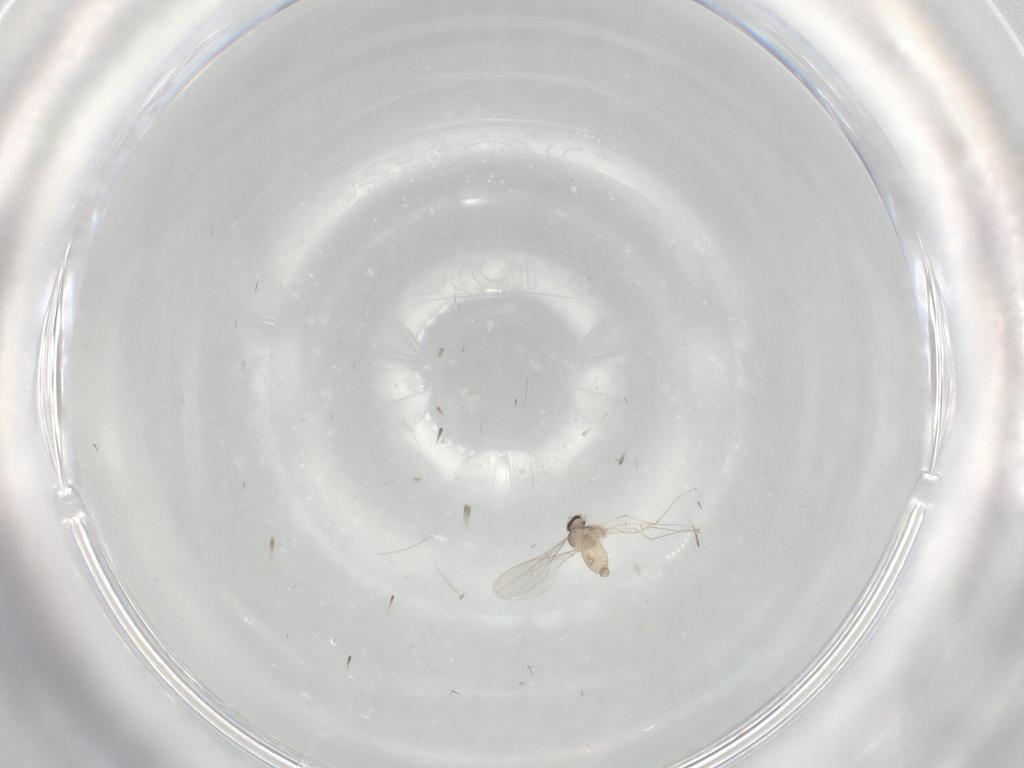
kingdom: Animalia
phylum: Arthropoda
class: Insecta
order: Diptera
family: Cecidomyiidae
